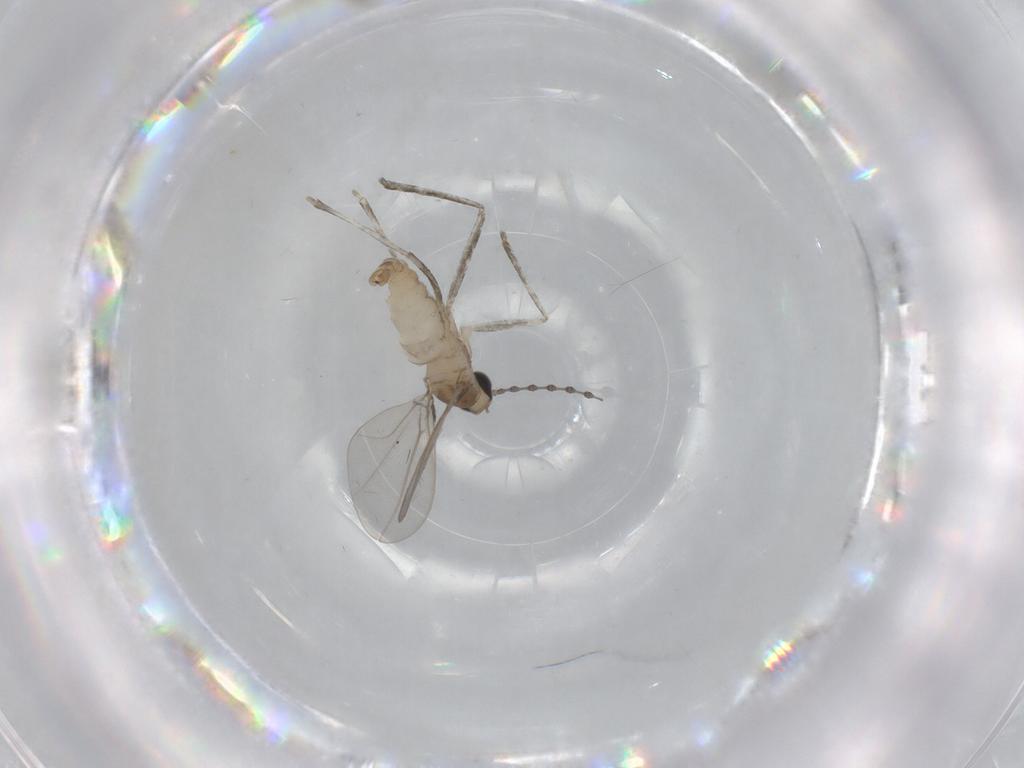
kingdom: Animalia
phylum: Arthropoda
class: Insecta
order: Diptera
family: Cecidomyiidae
